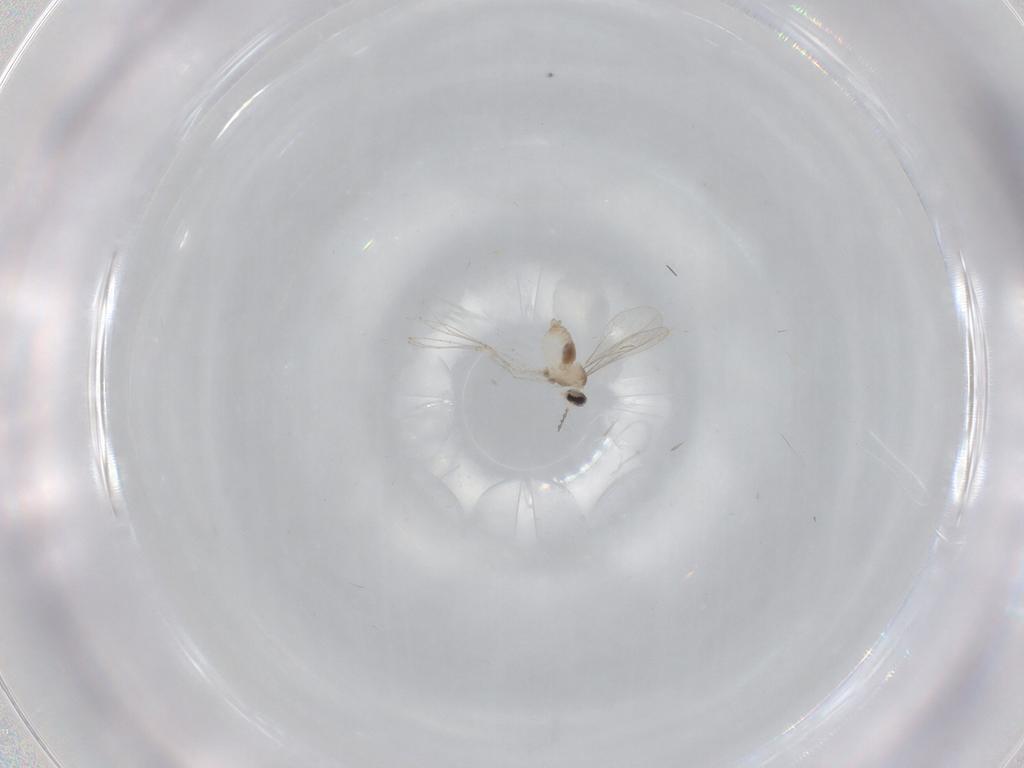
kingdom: Animalia
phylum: Arthropoda
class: Insecta
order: Diptera
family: Cecidomyiidae
